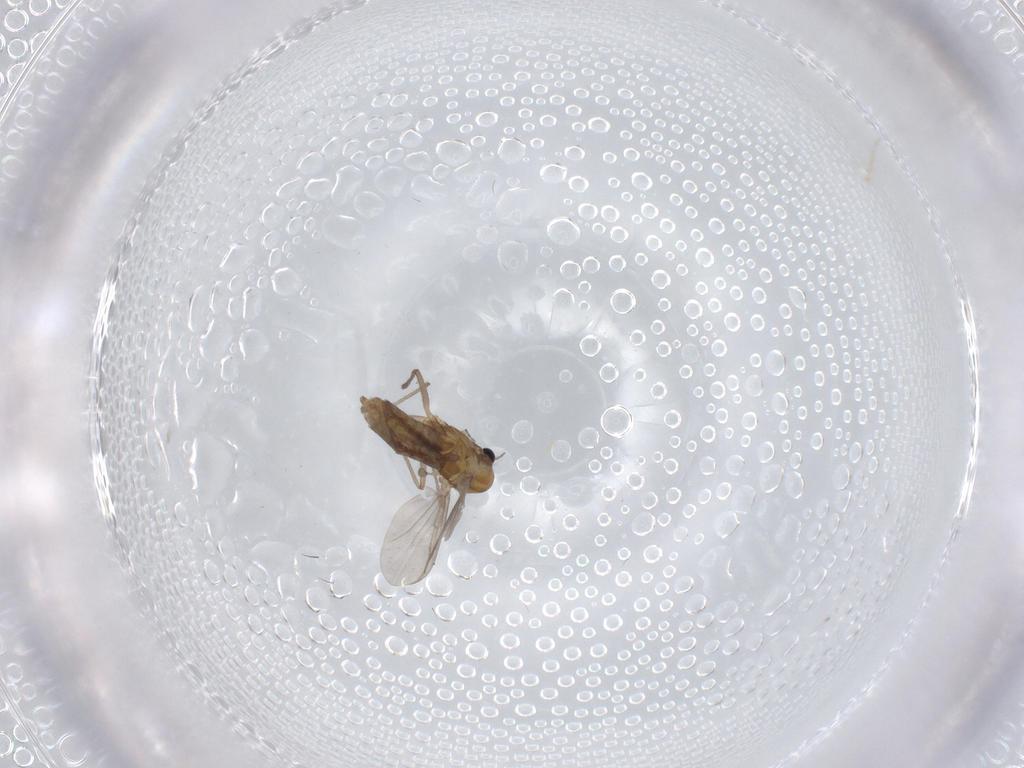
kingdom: Animalia
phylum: Arthropoda
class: Insecta
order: Diptera
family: Chironomidae
